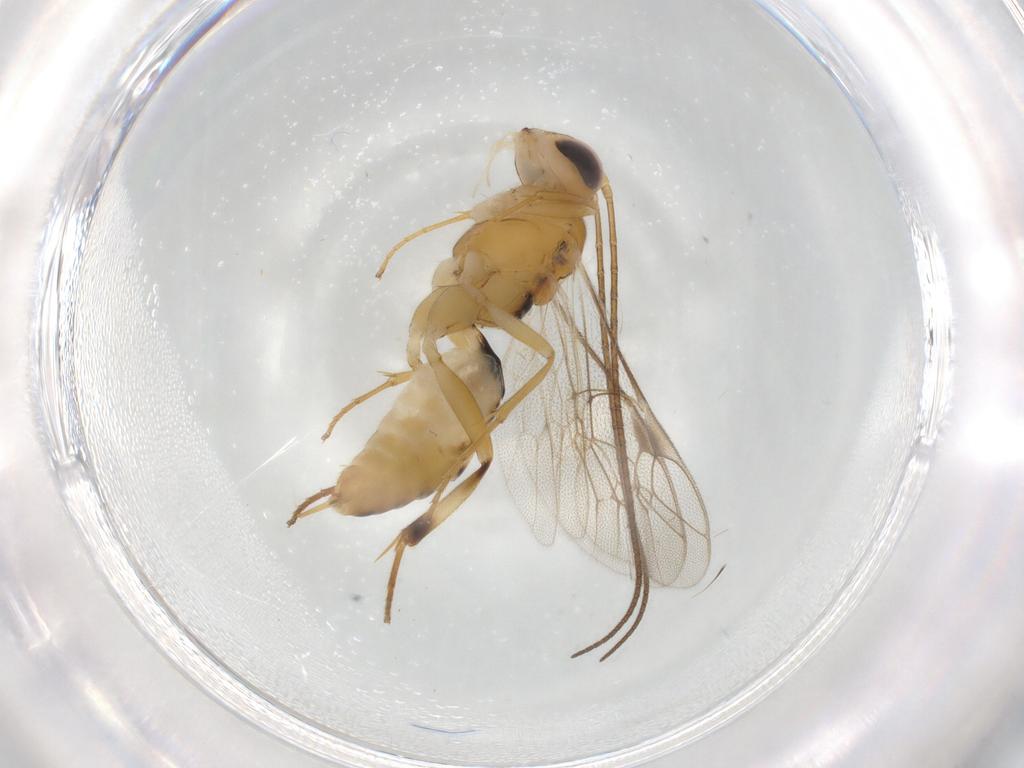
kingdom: Animalia
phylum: Arthropoda
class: Insecta
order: Hymenoptera
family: Ichneumonidae
